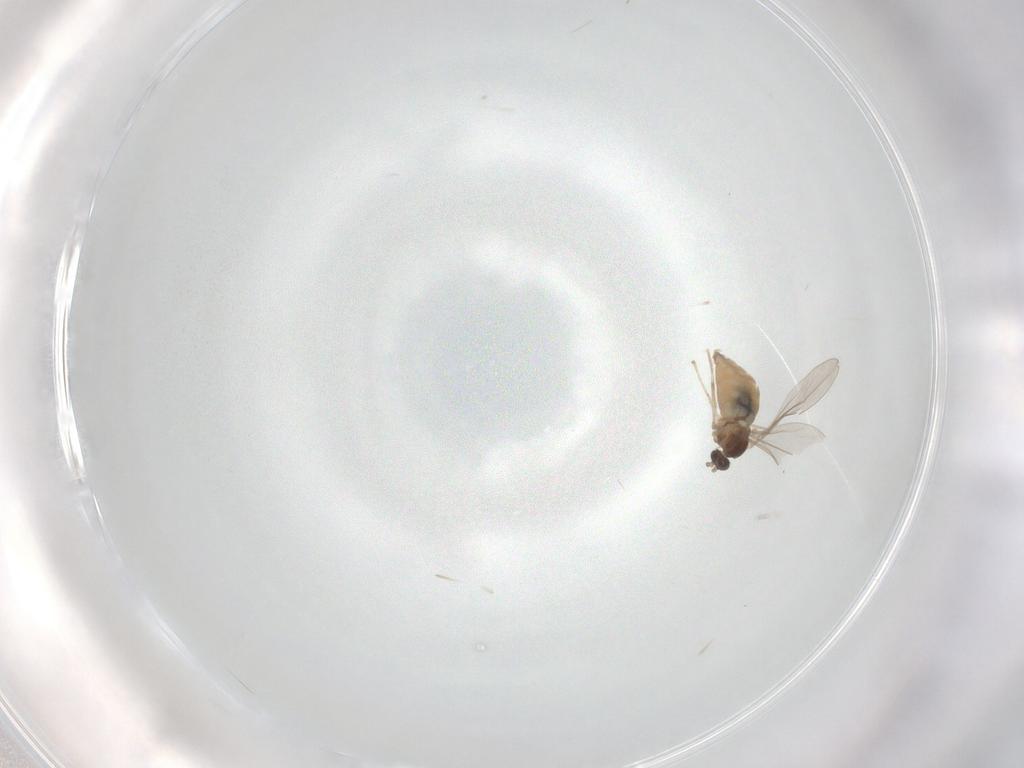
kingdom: Animalia
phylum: Arthropoda
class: Insecta
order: Diptera
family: Cecidomyiidae
